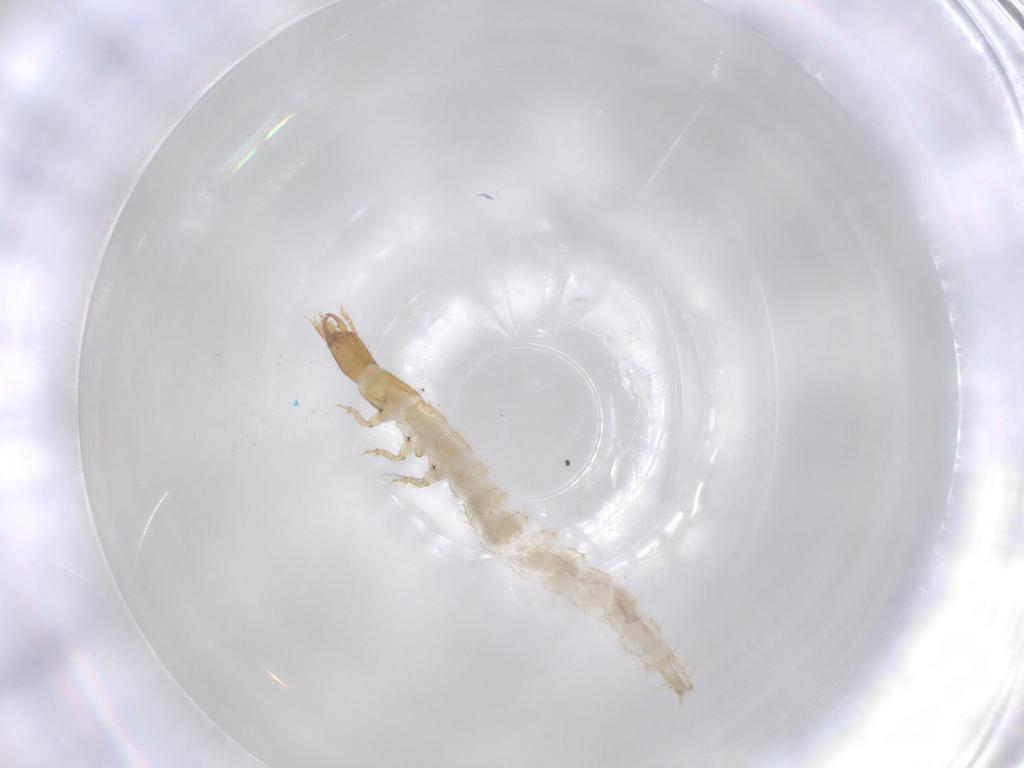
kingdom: Animalia
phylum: Arthropoda
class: Insecta
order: Coleoptera
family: Carabidae
